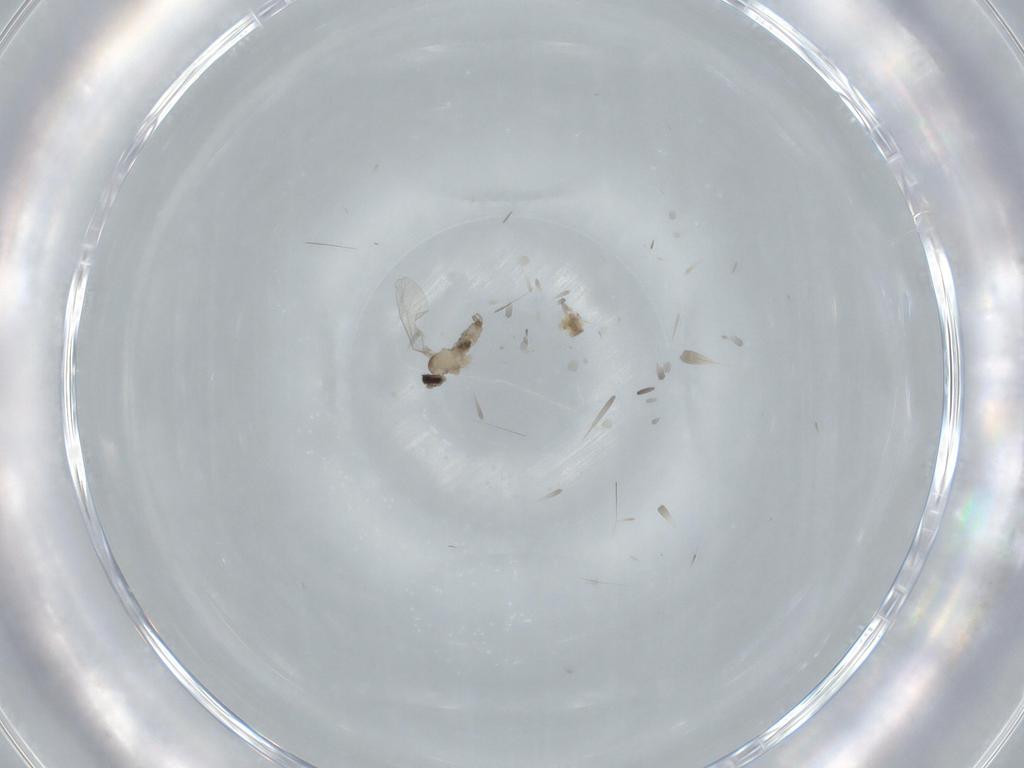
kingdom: Animalia
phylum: Arthropoda
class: Insecta
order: Diptera
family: Cecidomyiidae
